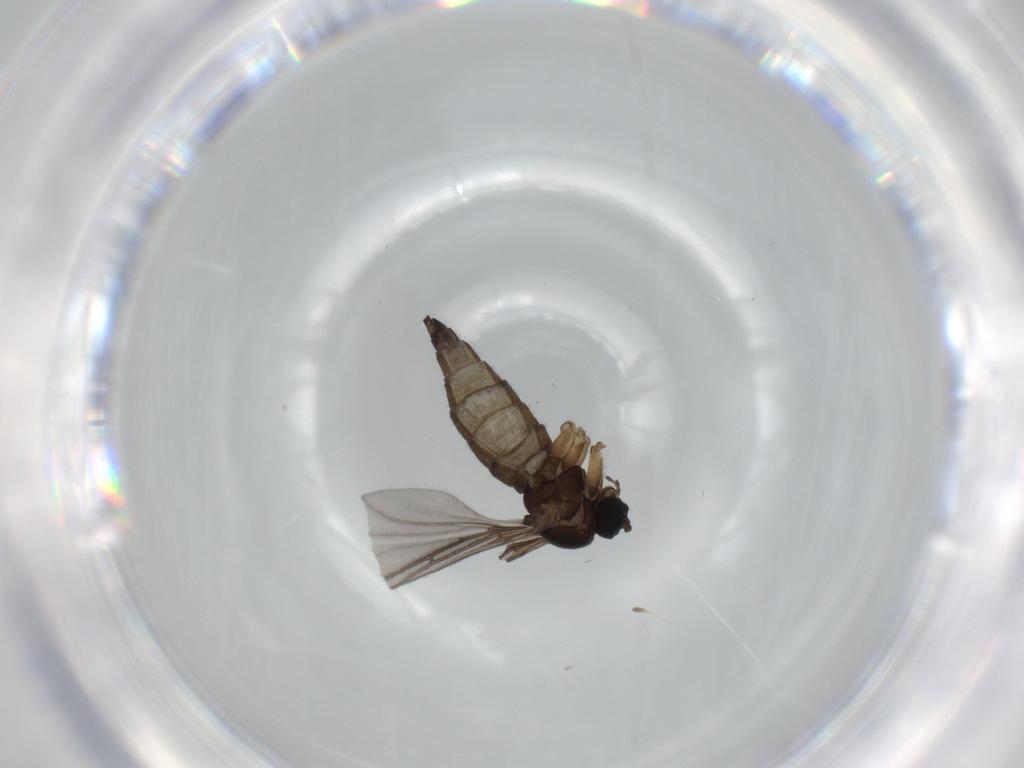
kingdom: Animalia
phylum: Arthropoda
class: Insecta
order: Diptera
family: Sciaridae
